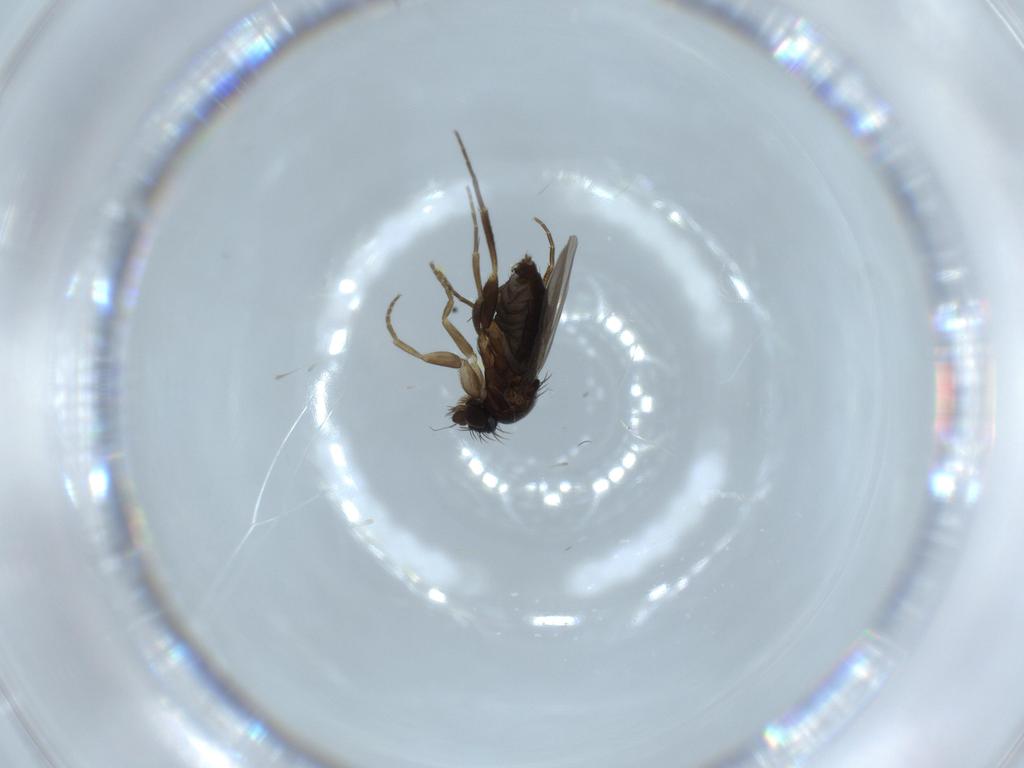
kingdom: Animalia
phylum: Arthropoda
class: Insecta
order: Diptera
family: Phoridae
